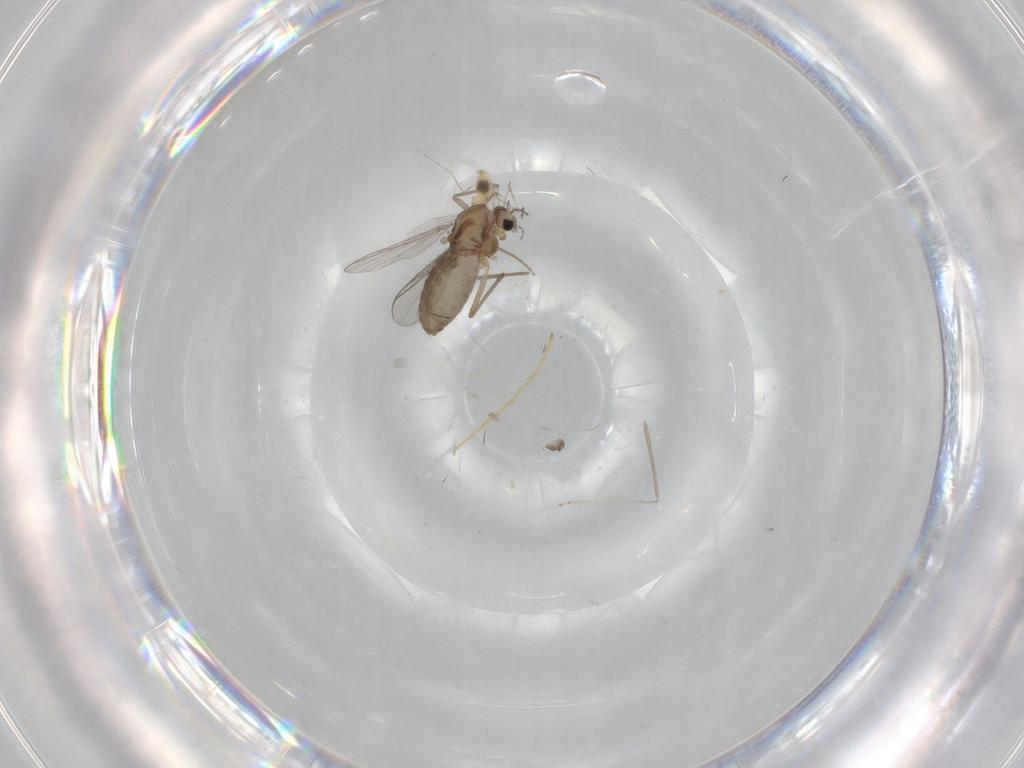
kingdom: Animalia
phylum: Arthropoda
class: Insecta
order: Diptera
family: Chironomidae
